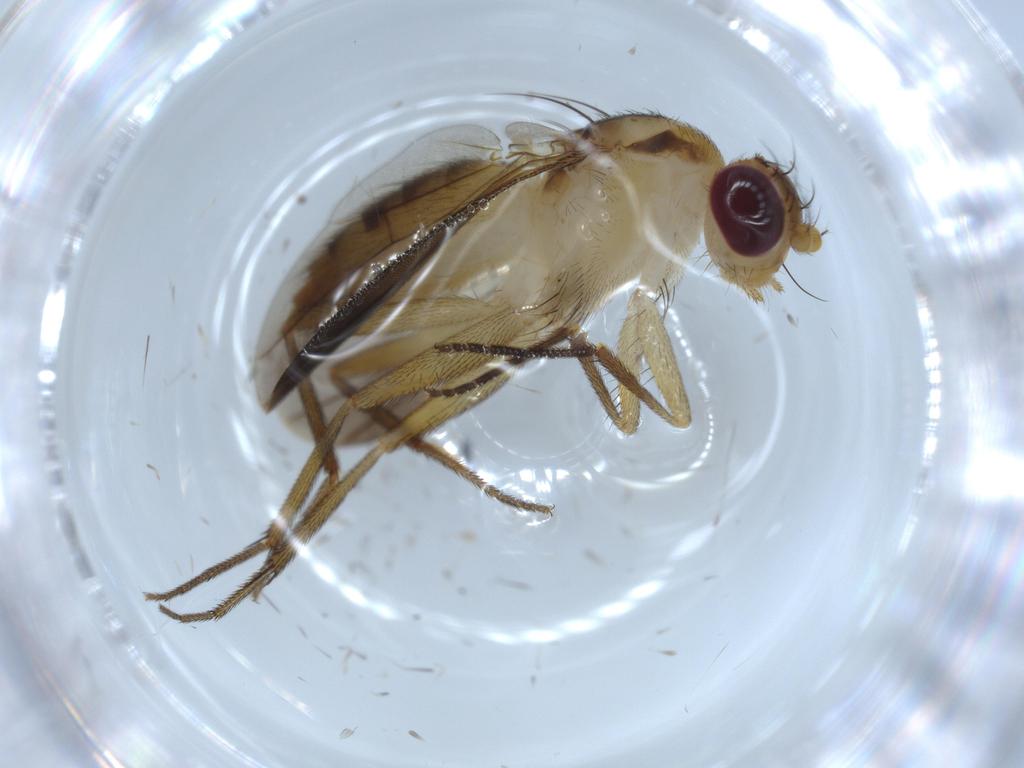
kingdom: Animalia
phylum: Arthropoda
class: Insecta
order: Diptera
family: Clusiidae
